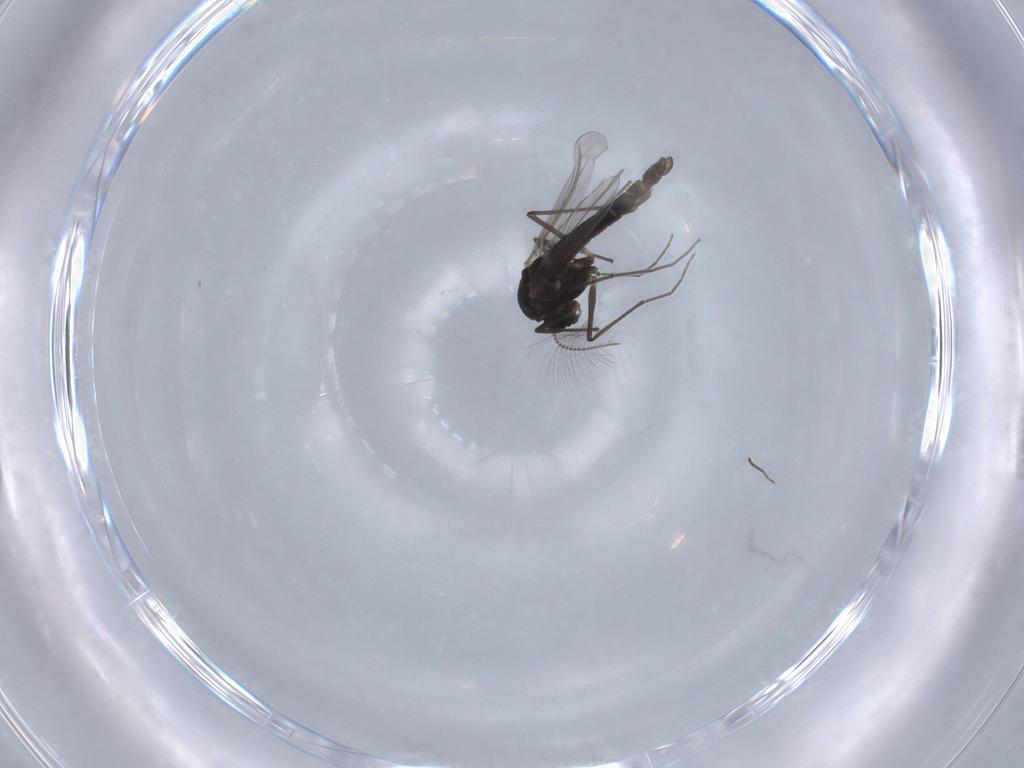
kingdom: Animalia
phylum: Arthropoda
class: Insecta
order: Diptera
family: Chironomidae
